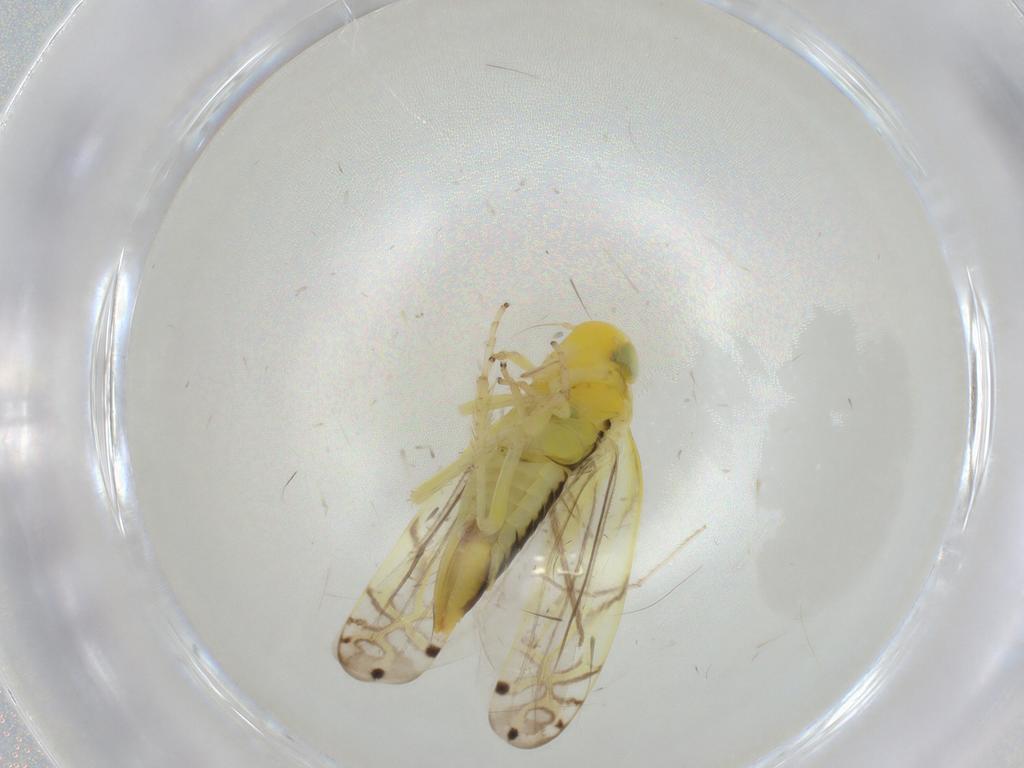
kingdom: Animalia
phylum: Arthropoda
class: Insecta
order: Hemiptera
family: Cicadellidae
